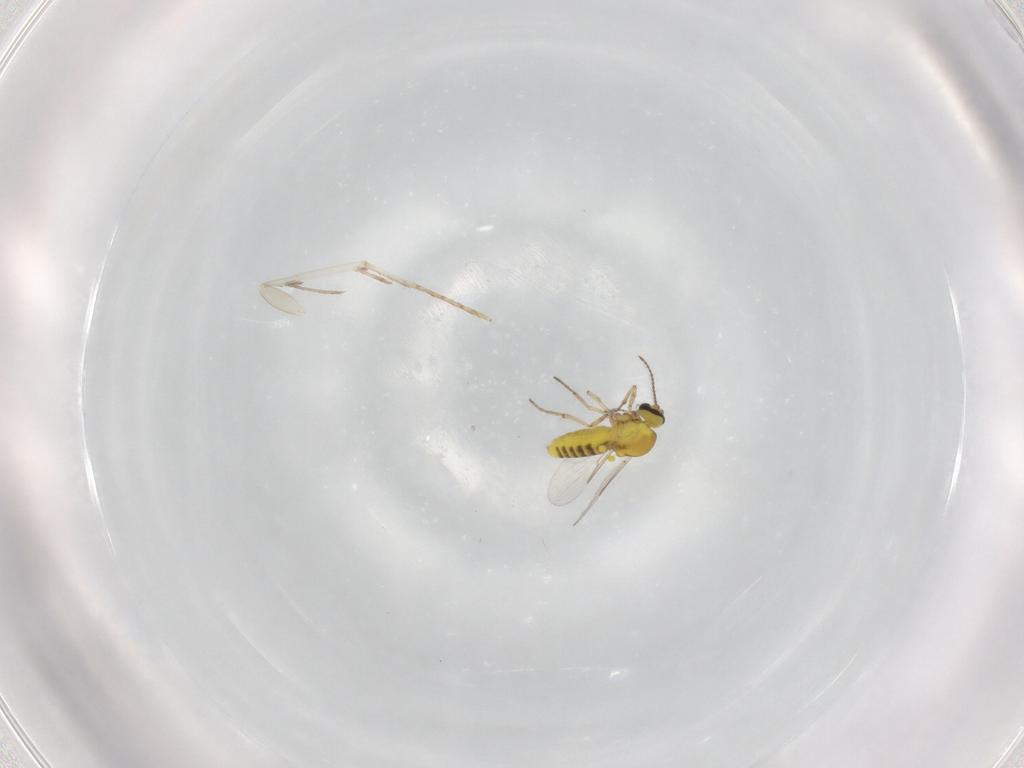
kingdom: Animalia
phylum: Arthropoda
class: Insecta
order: Diptera
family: Ceratopogonidae
